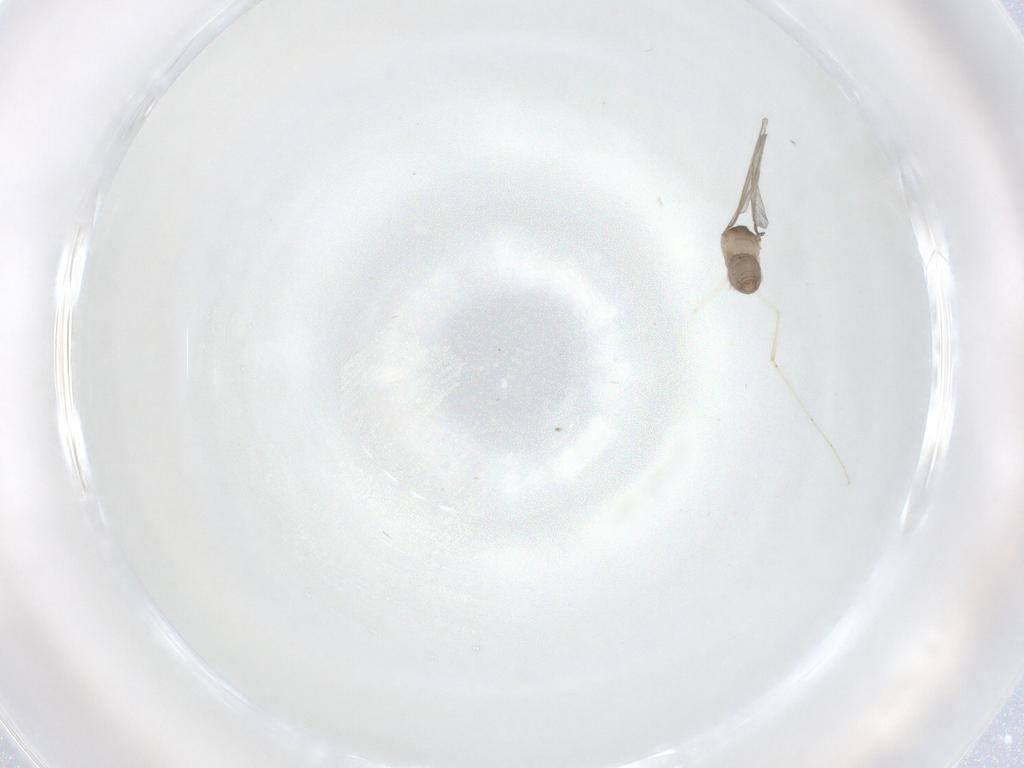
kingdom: Animalia
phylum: Arthropoda
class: Insecta
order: Diptera
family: Cecidomyiidae
